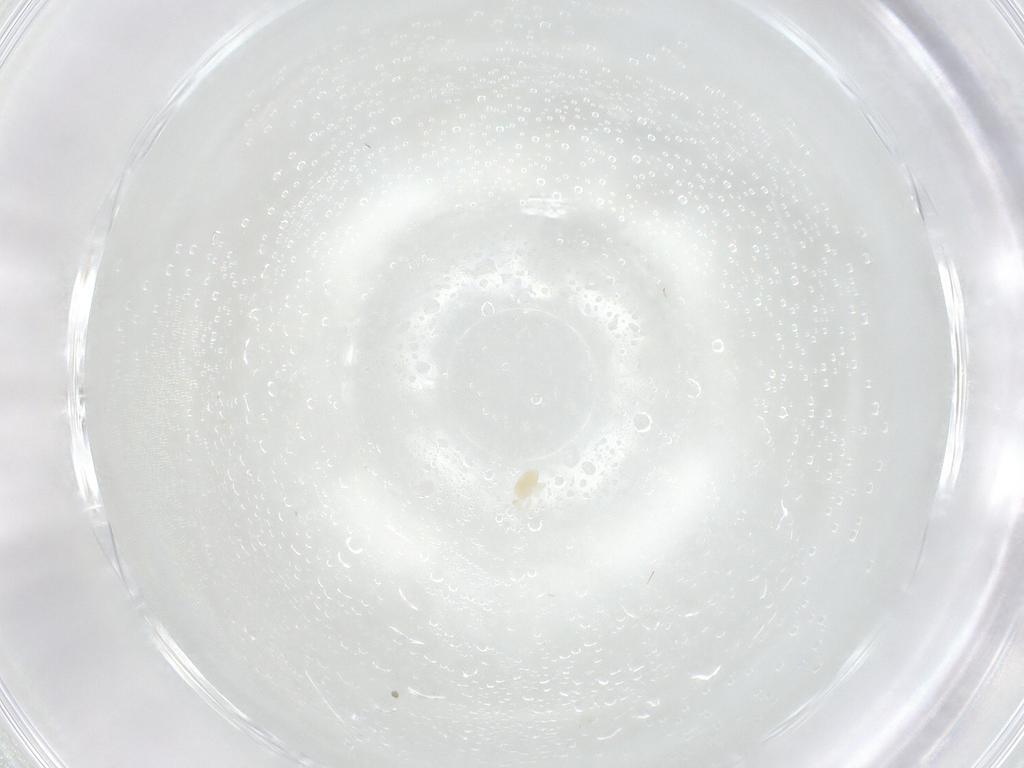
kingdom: Animalia
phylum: Arthropoda
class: Arachnida
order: Trombidiformes
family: Eupodidae
